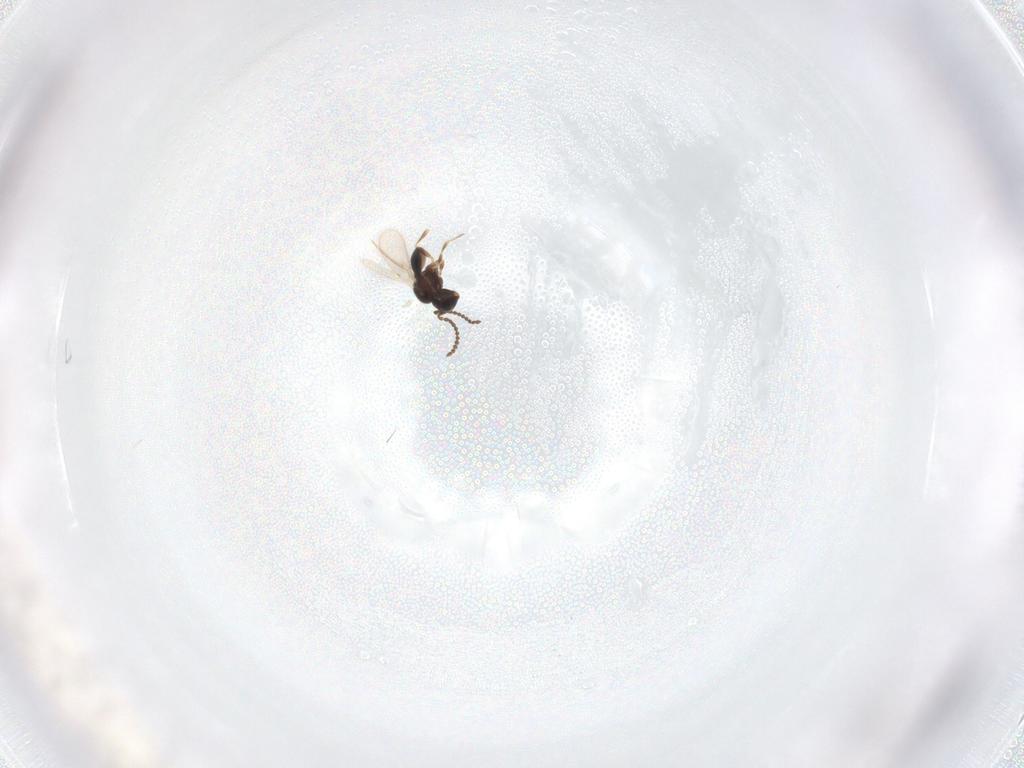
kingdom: Animalia
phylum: Arthropoda
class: Insecta
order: Hymenoptera
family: Scelionidae
